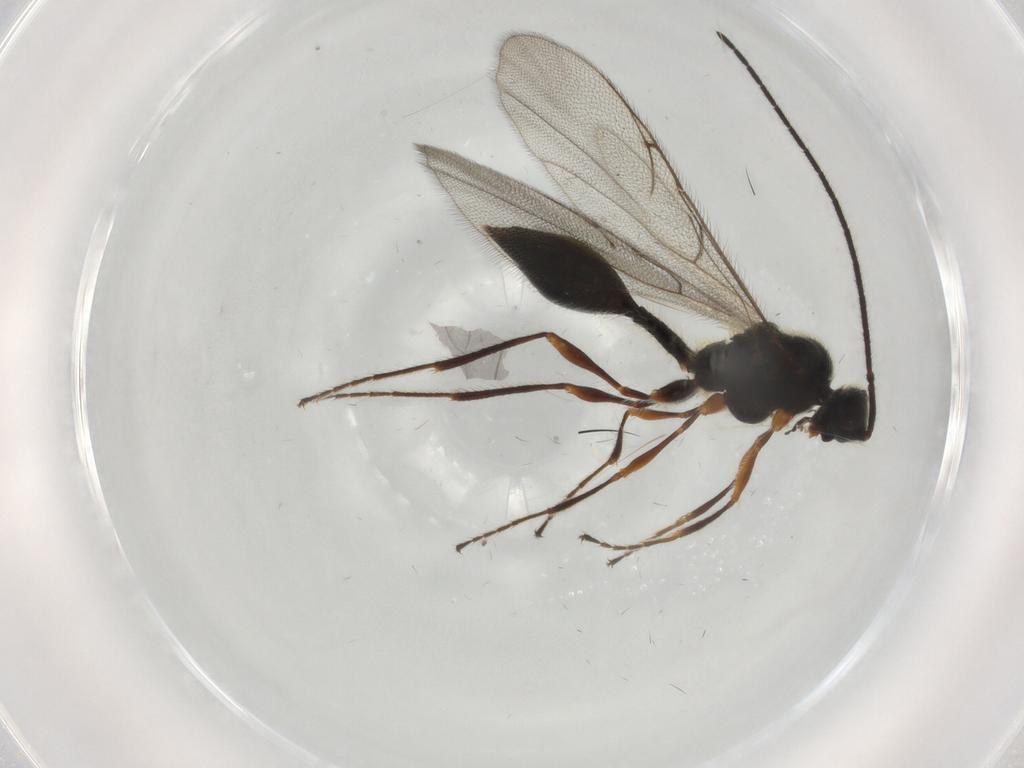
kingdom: Animalia
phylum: Arthropoda
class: Insecta
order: Hymenoptera
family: Diapriidae
